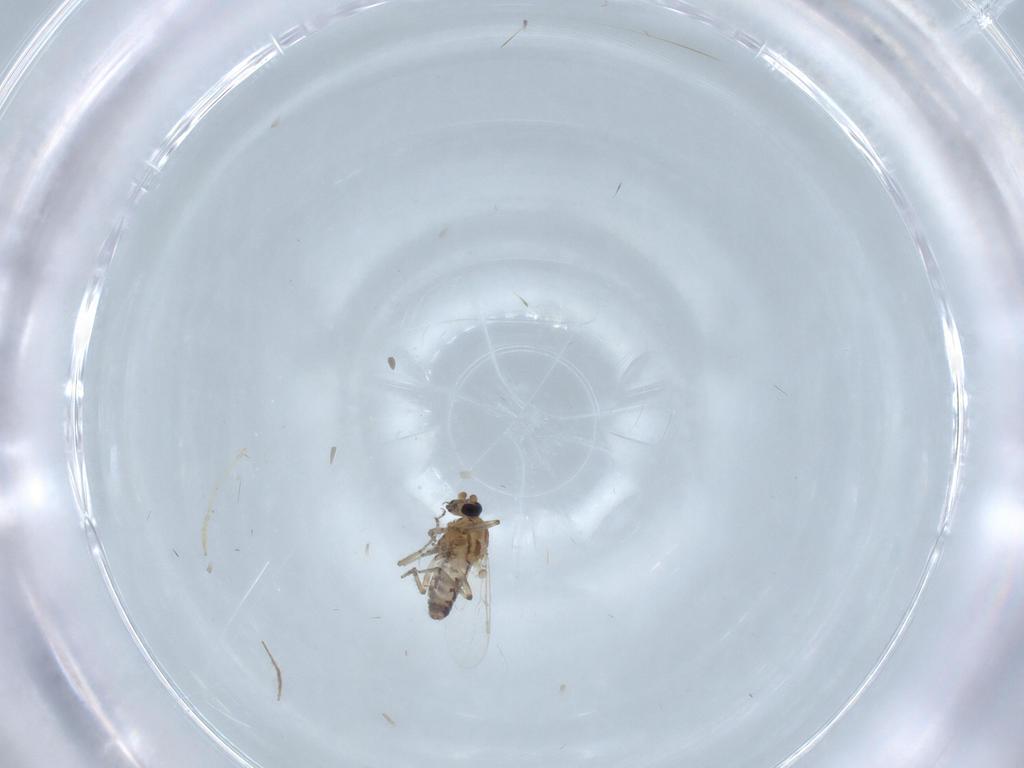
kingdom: Animalia
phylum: Arthropoda
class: Insecta
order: Diptera
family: Ceratopogonidae
